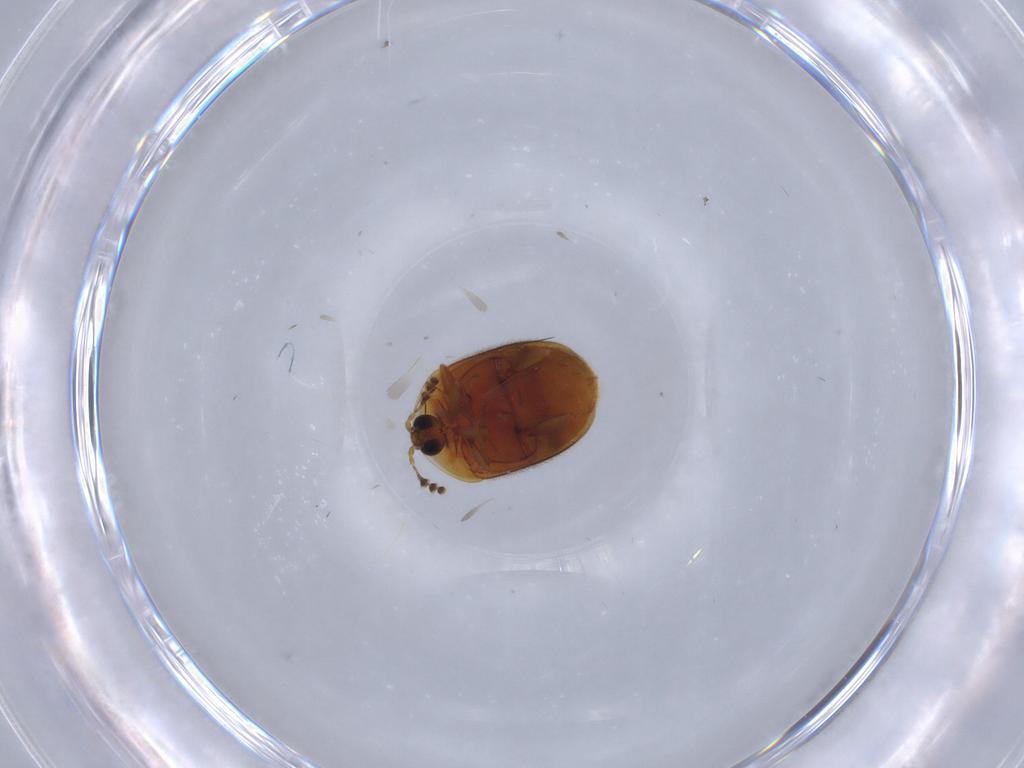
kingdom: Animalia
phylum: Arthropoda
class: Insecta
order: Coleoptera
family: Corylophidae
